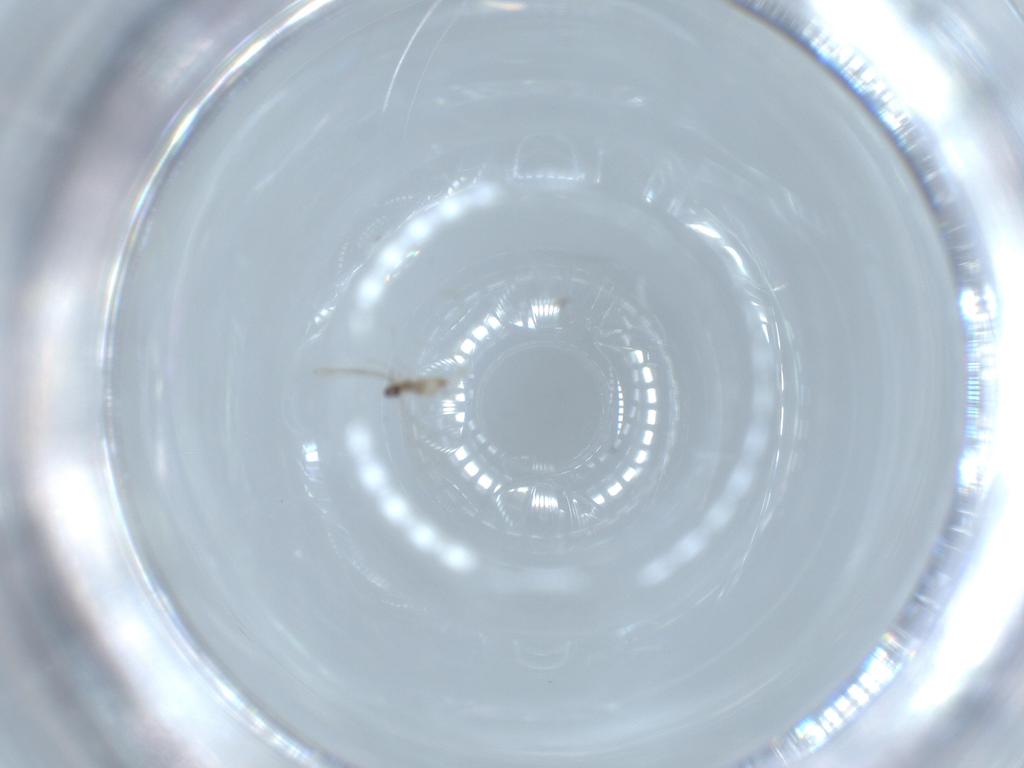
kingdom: Animalia
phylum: Arthropoda
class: Insecta
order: Diptera
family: Cecidomyiidae
